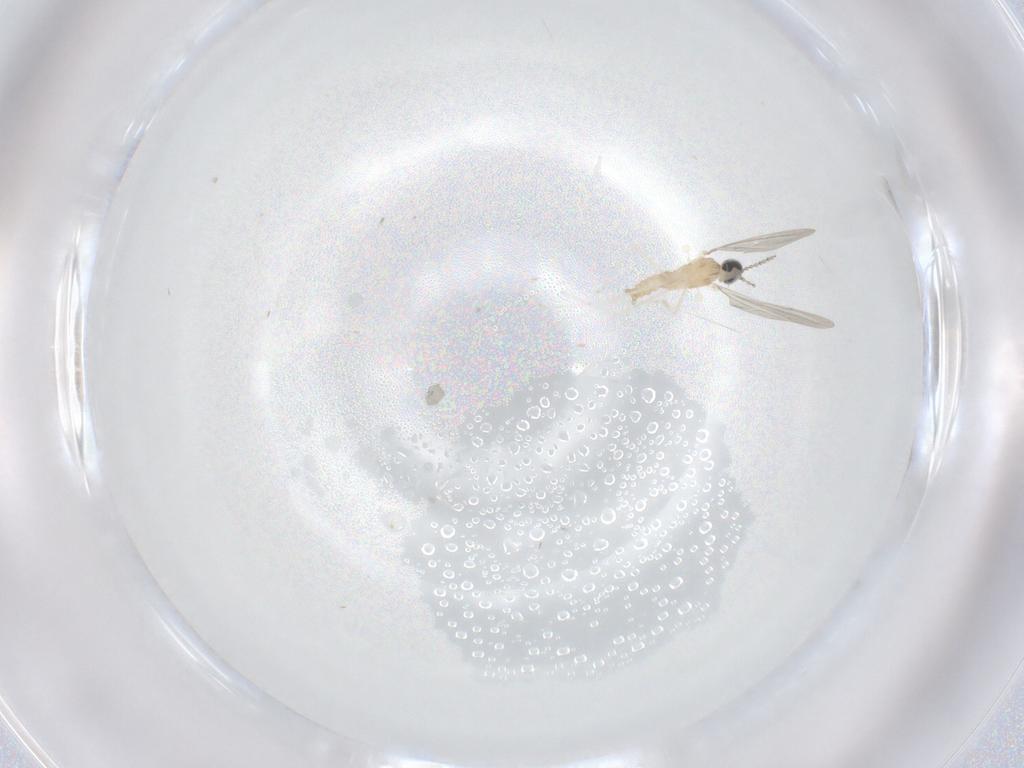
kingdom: Animalia
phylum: Arthropoda
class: Insecta
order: Diptera
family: Cecidomyiidae
